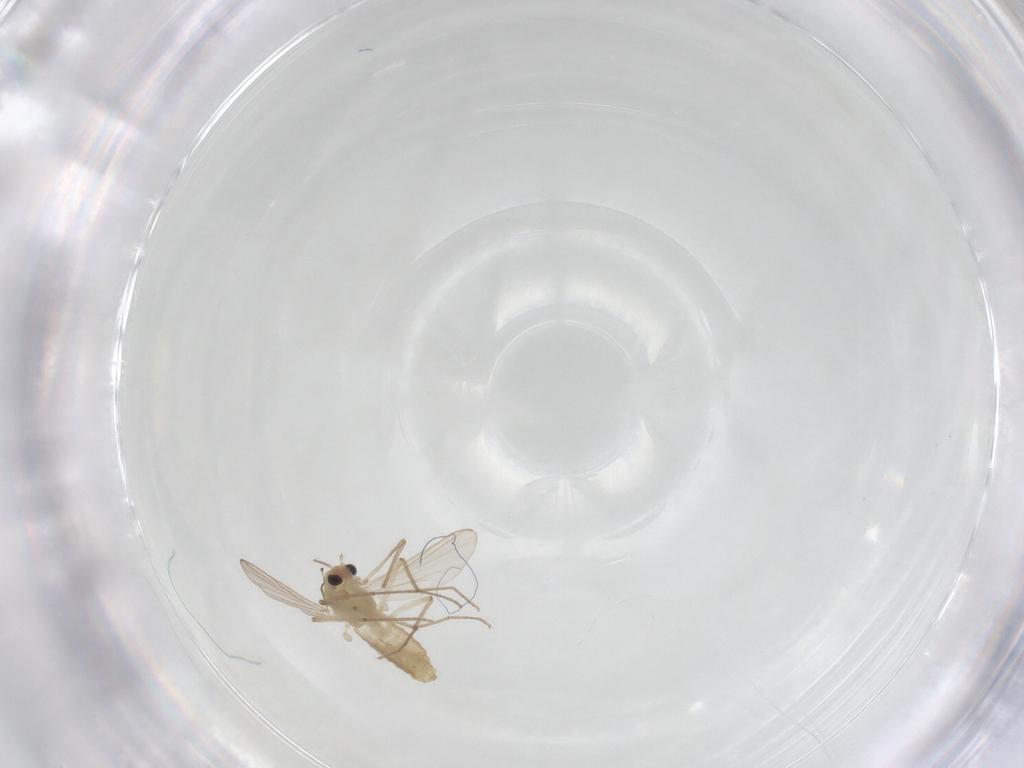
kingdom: Animalia
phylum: Arthropoda
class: Insecta
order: Diptera
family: Chironomidae
